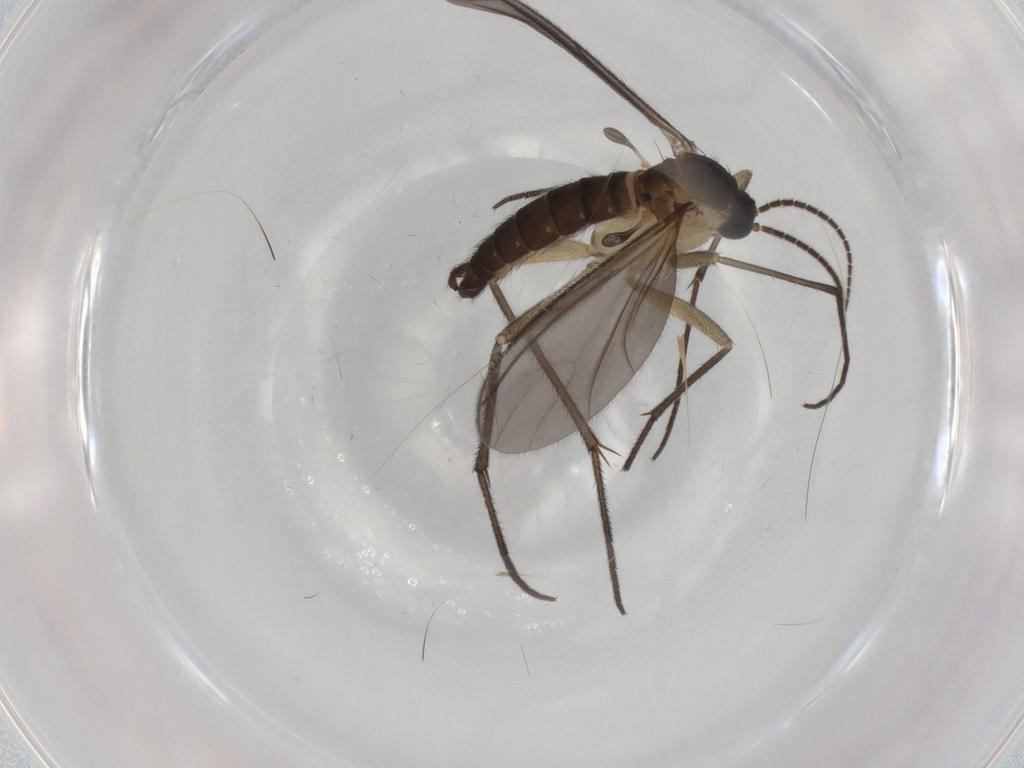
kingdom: Animalia
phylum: Arthropoda
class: Insecta
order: Diptera
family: Sciaridae
